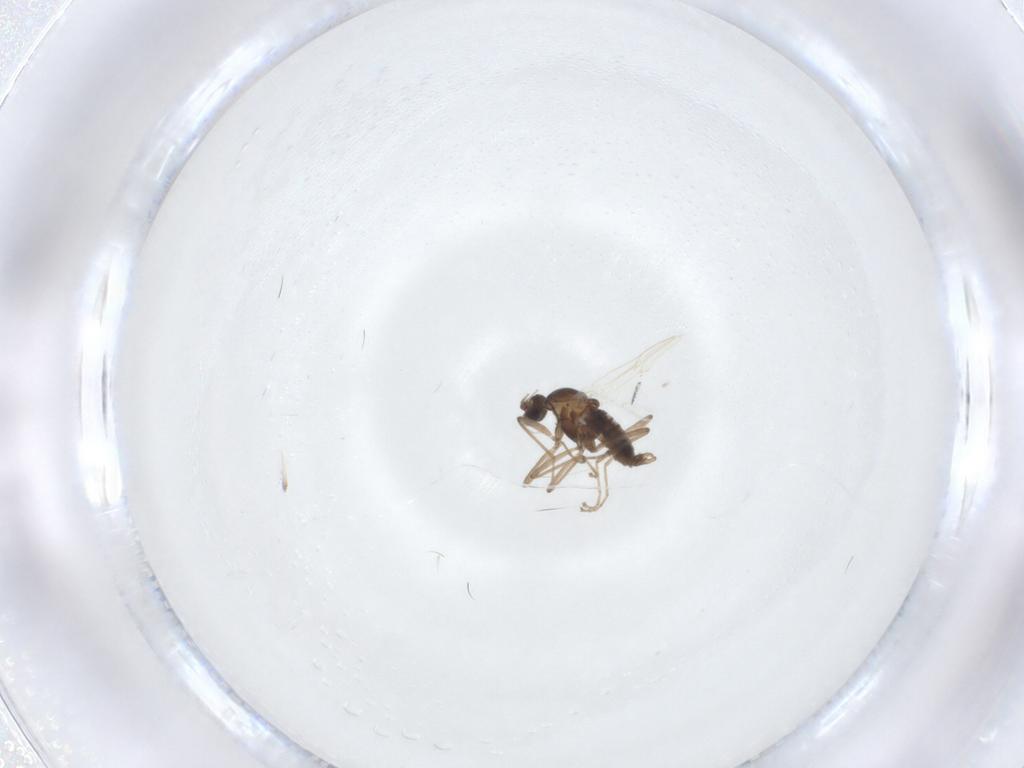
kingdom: Animalia
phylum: Arthropoda
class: Insecta
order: Diptera
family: Cecidomyiidae
